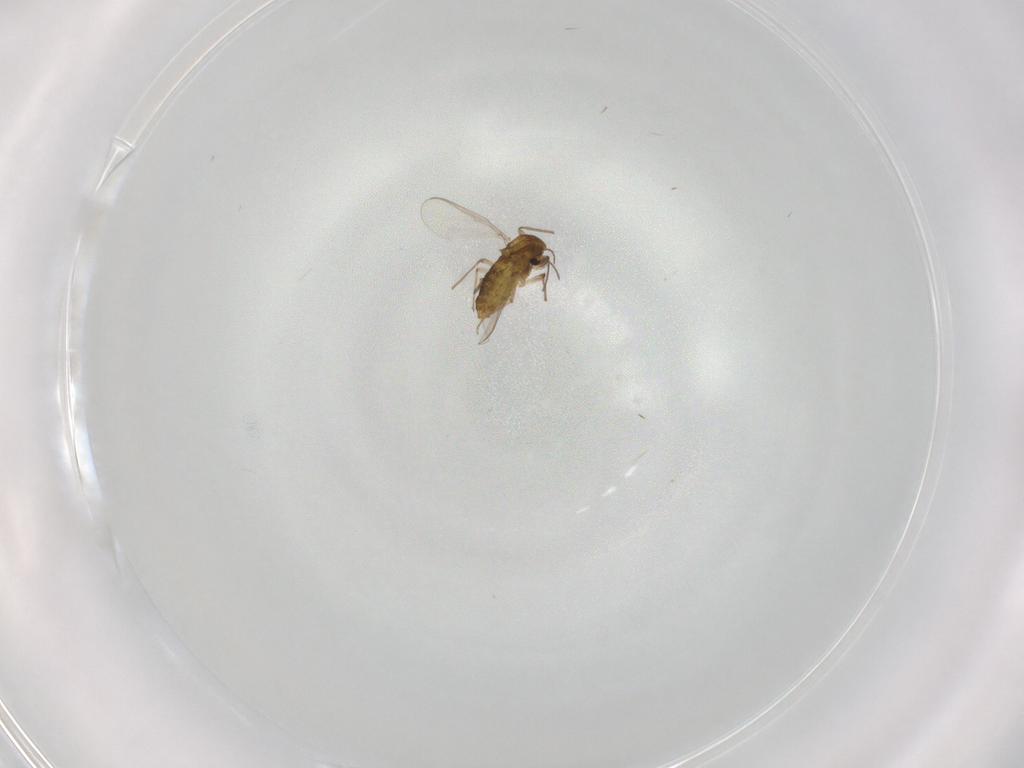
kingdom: Animalia
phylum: Arthropoda
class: Insecta
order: Diptera
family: Chironomidae
